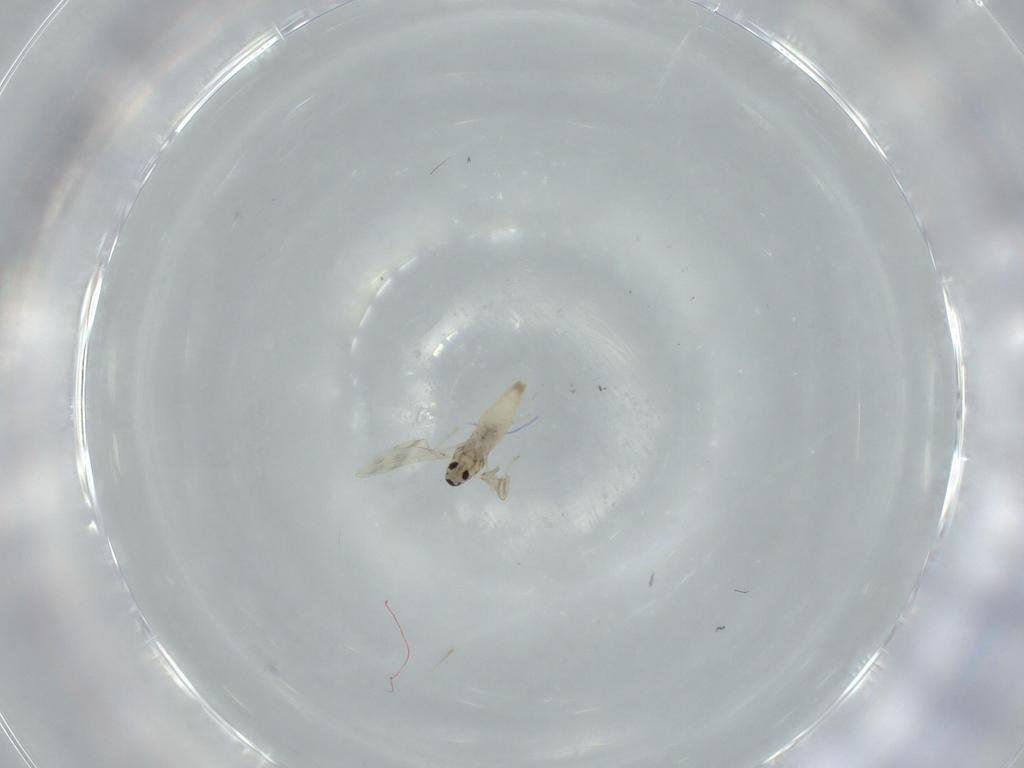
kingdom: Animalia
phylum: Arthropoda
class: Insecta
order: Diptera
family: Cecidomyiidae
